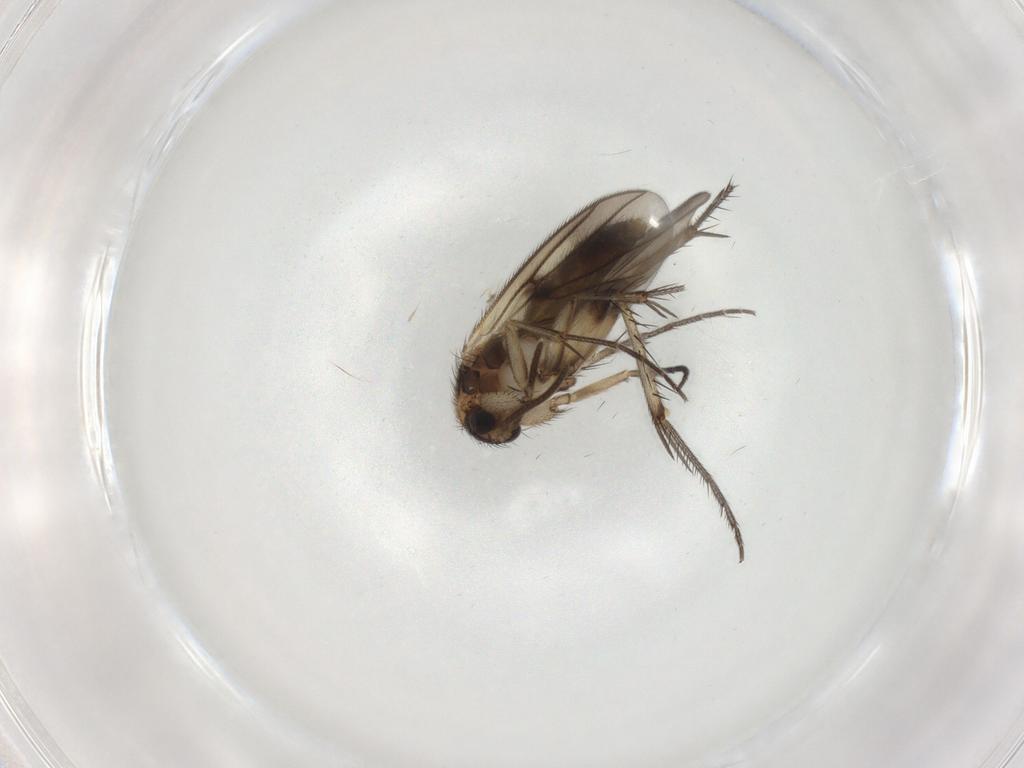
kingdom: Animalia
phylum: Arthropoda
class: Insecta
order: Diptera
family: Mycetophilidae
